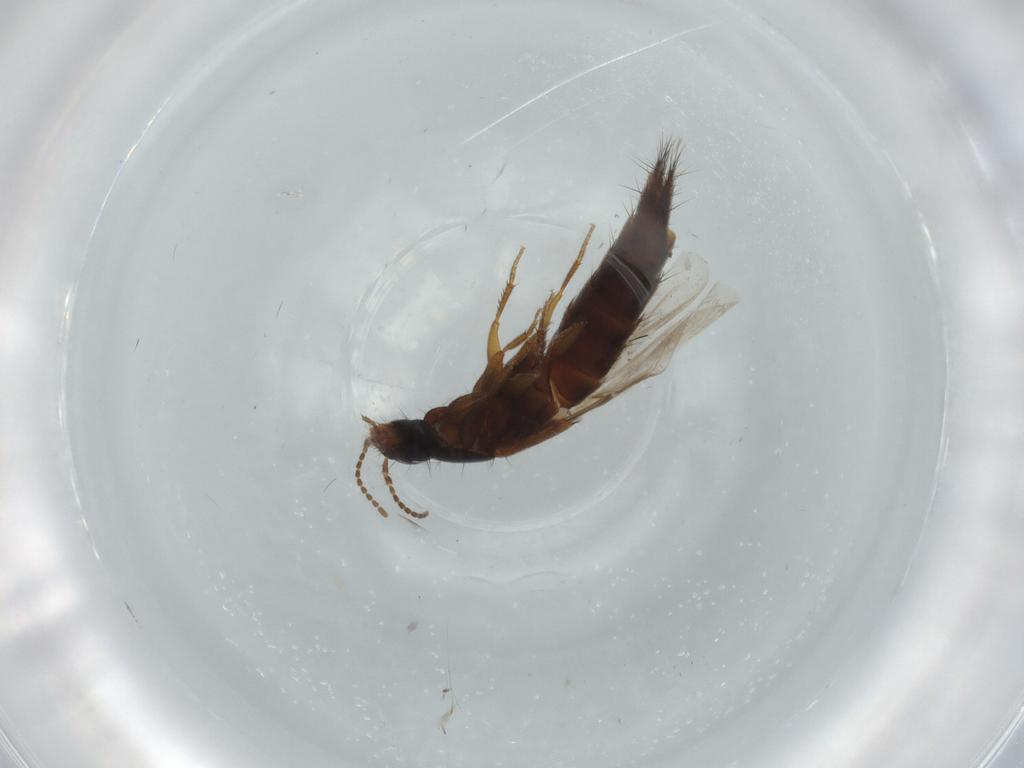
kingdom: Animalia
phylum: Arthropoda
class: Insecta
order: Coleoptera
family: Staphylinidae
